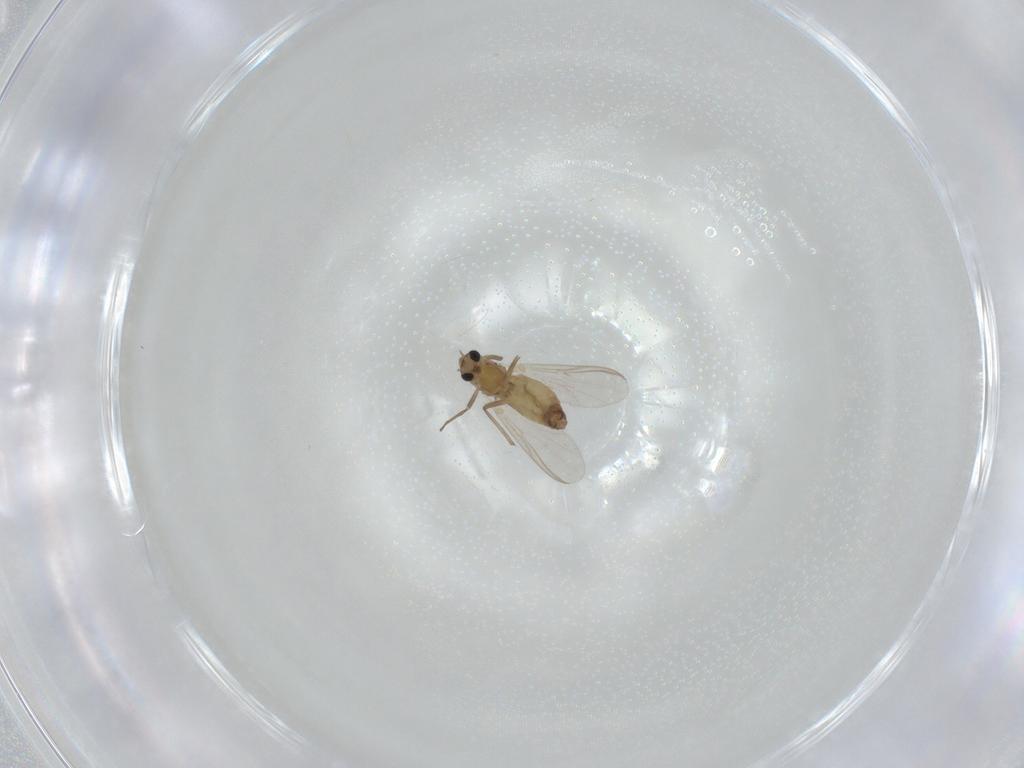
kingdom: Animalia
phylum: Arthropoda
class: Insecta
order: Diptera
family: Chironomidae
